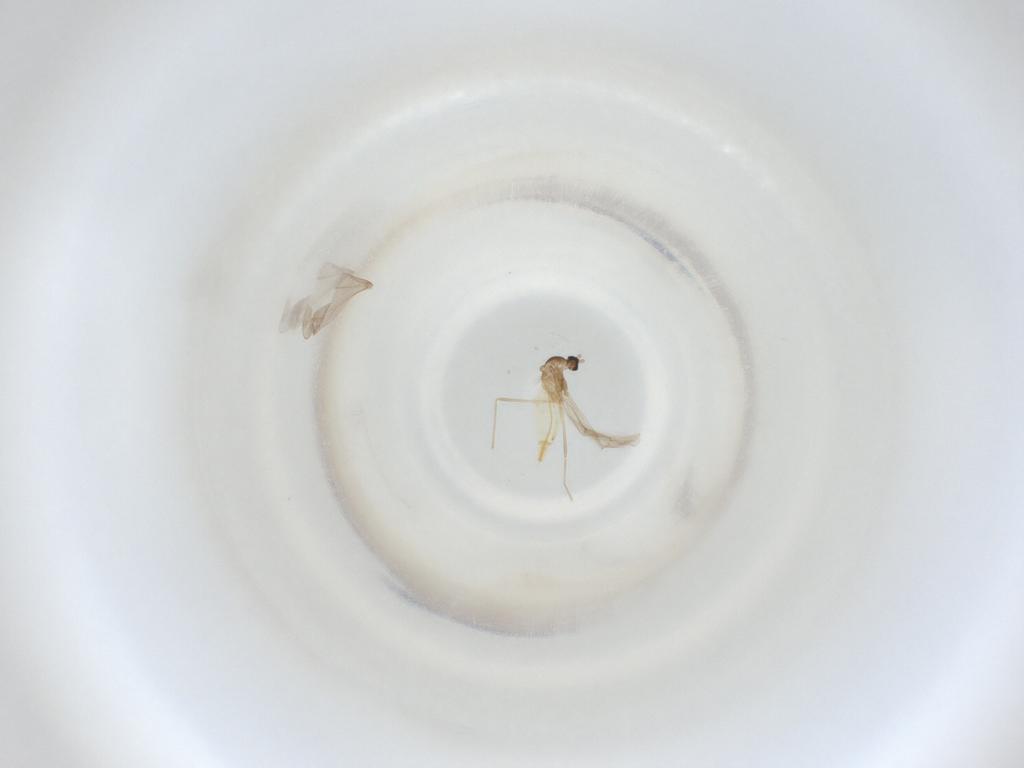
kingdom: Animalia
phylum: Arthropoda
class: Insecta
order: Diptera
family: Cecidomyiidae
